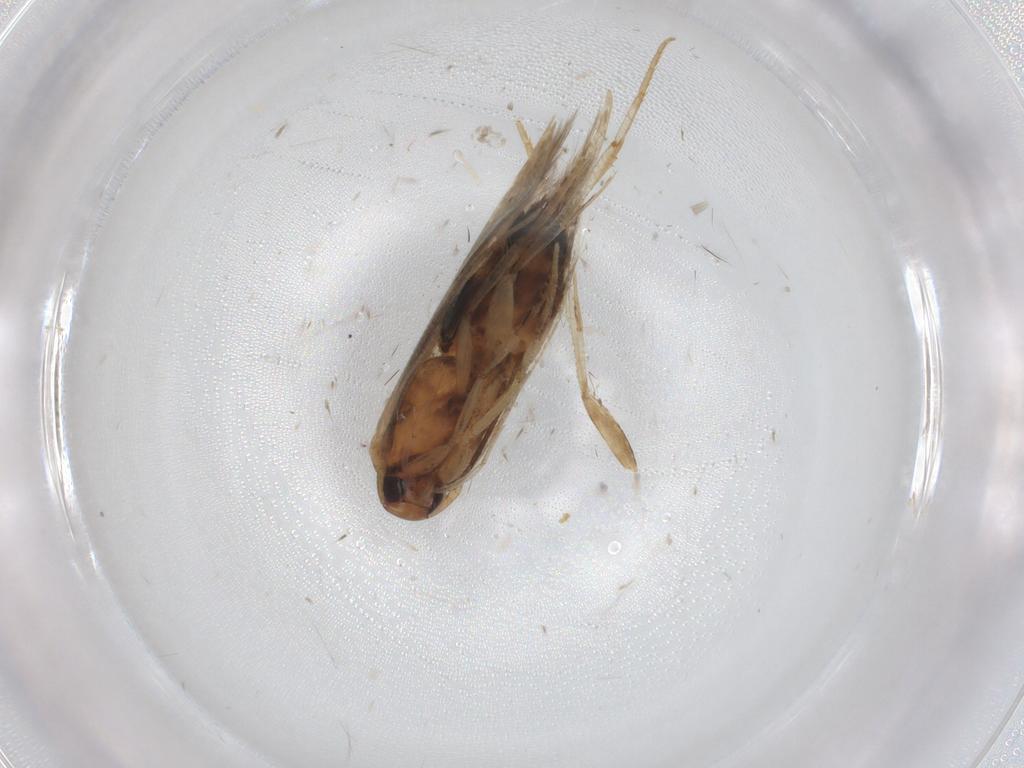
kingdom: Animalia
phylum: Arthropoda
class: Insecta
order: Lepidoptera
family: Cosmopterigidae
